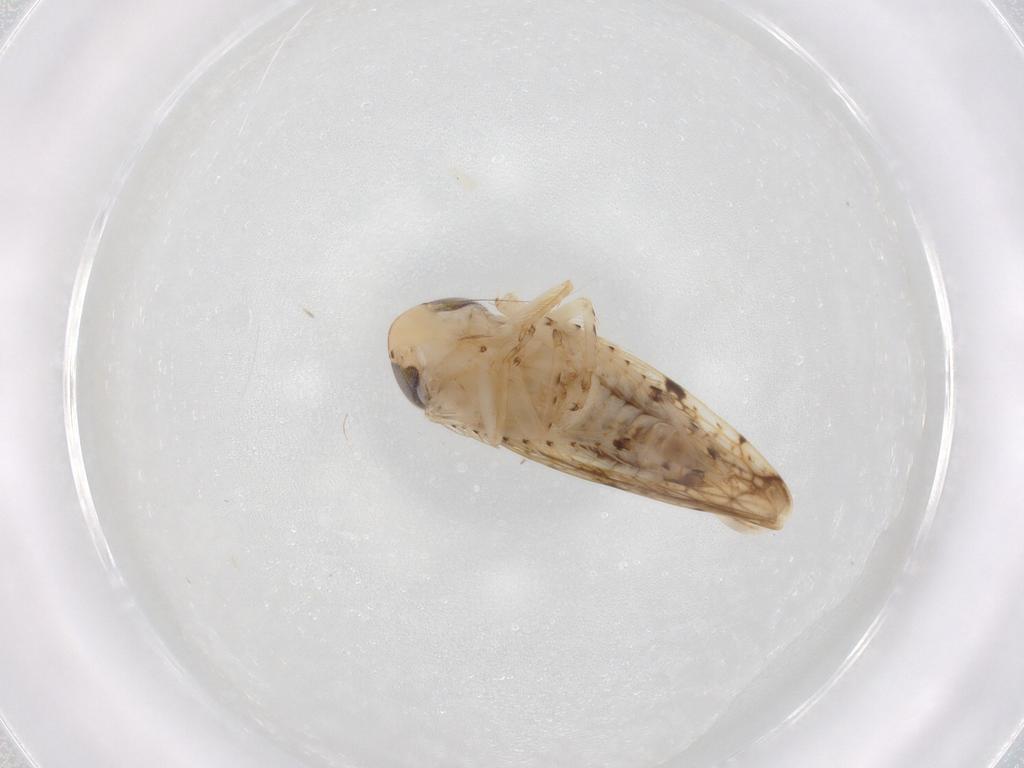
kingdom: Animalia
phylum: Arthropoda
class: Insecta
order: Hemiptera
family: Cicadellidae
